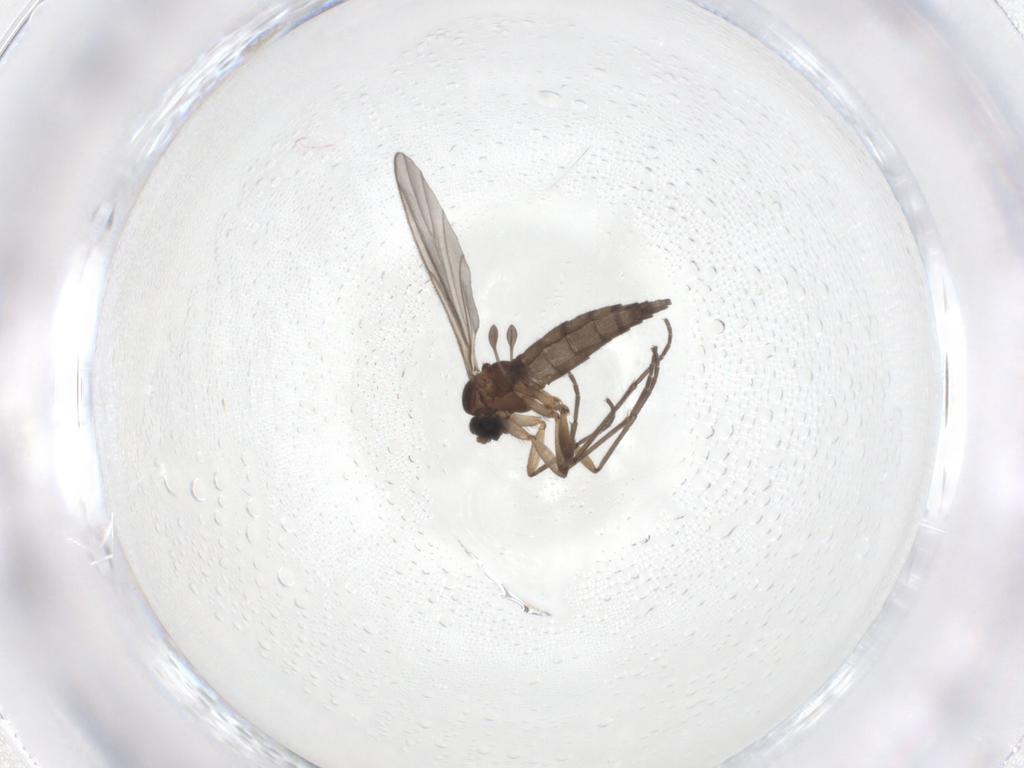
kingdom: Animalia
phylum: Arthropoda
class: Insecta
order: Diptera
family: Sciaridae
